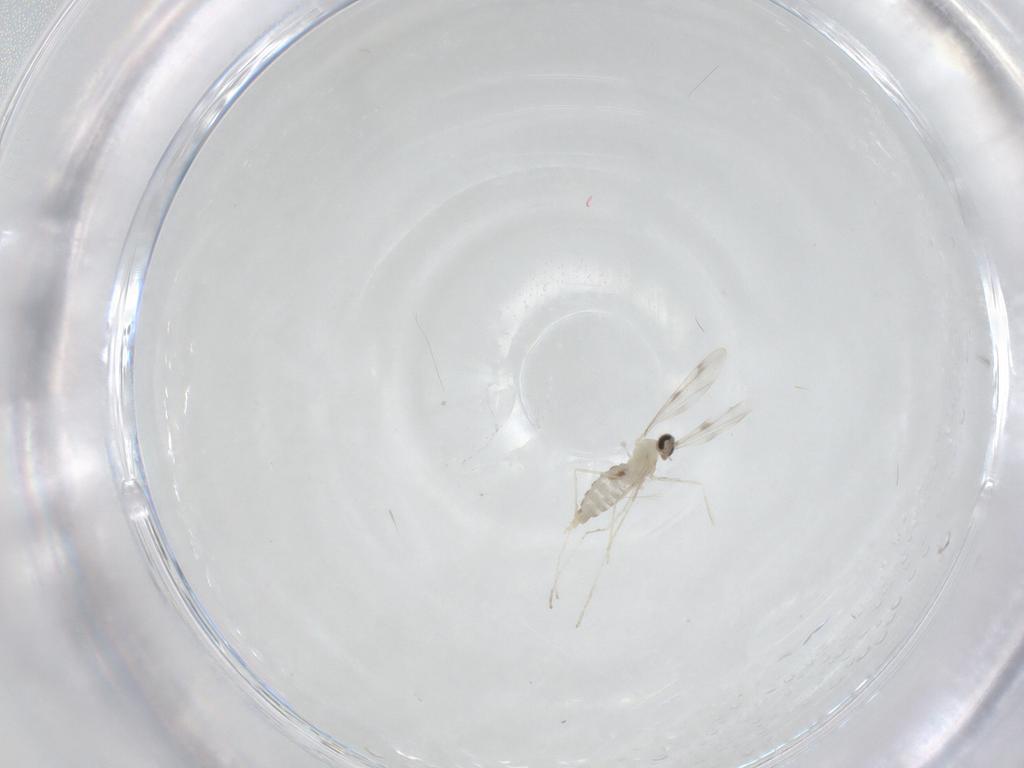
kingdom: Animalia
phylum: Arthropoda
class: Insecta
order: Diptera
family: Cecidomyiidae
